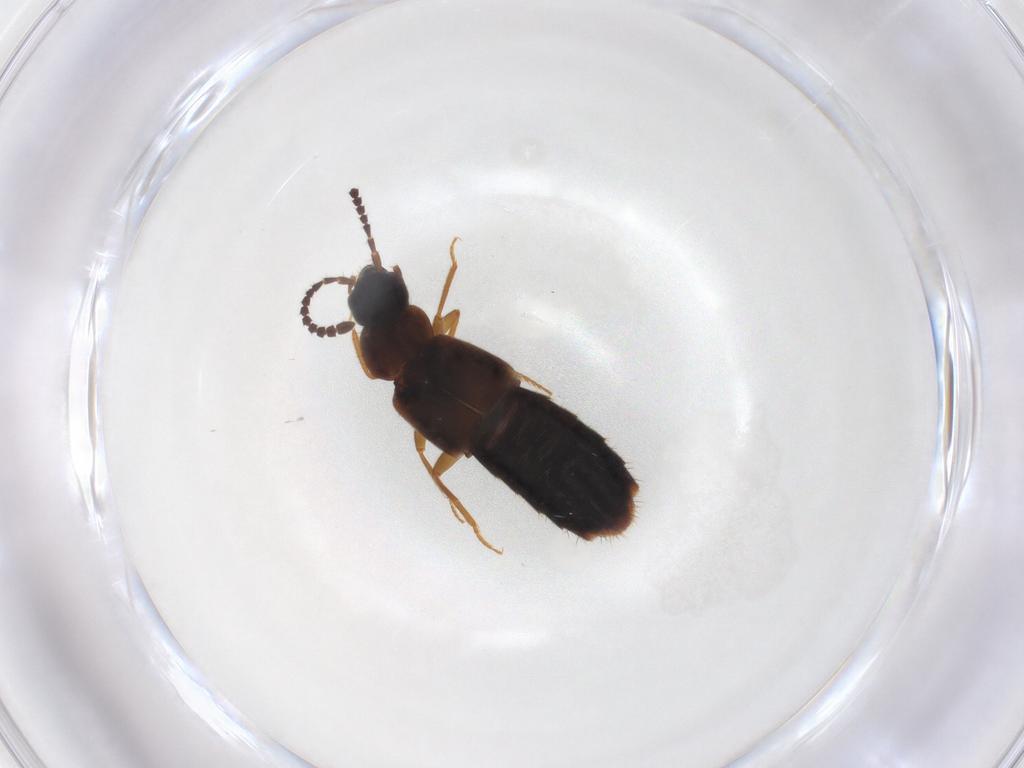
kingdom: Animalia
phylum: Arthropoda
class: Insecta
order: Coleoptera
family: Staphylinidae
